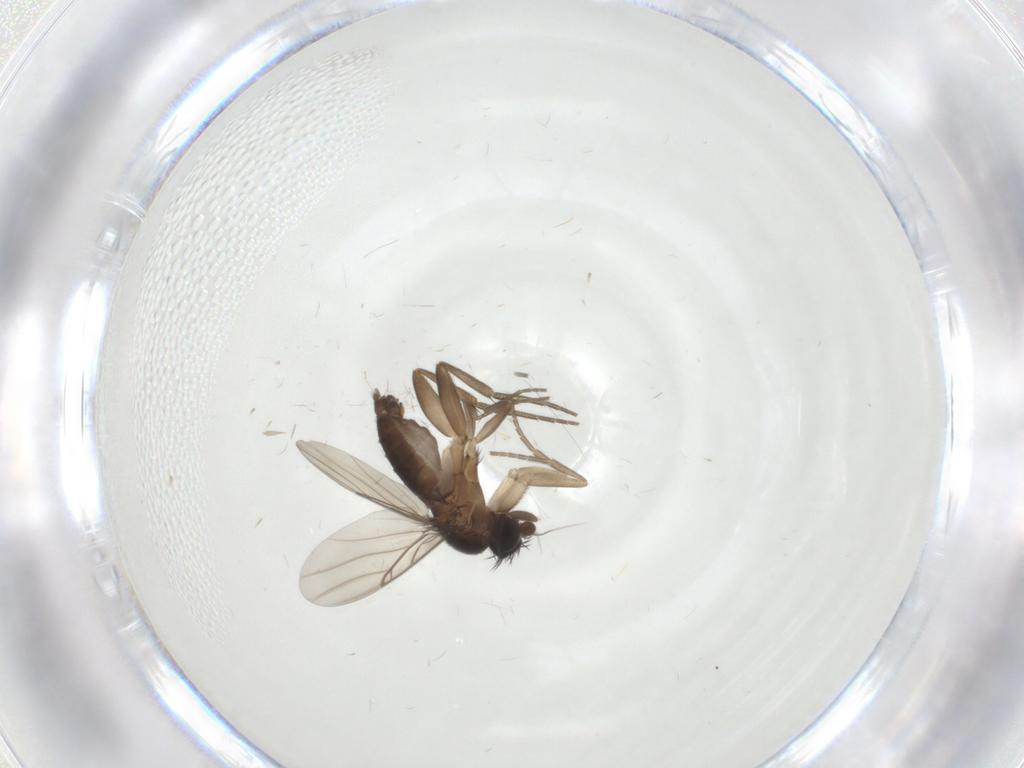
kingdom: Animalia
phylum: Arthropoda
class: Insecta
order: Diptera
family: Phoridae
